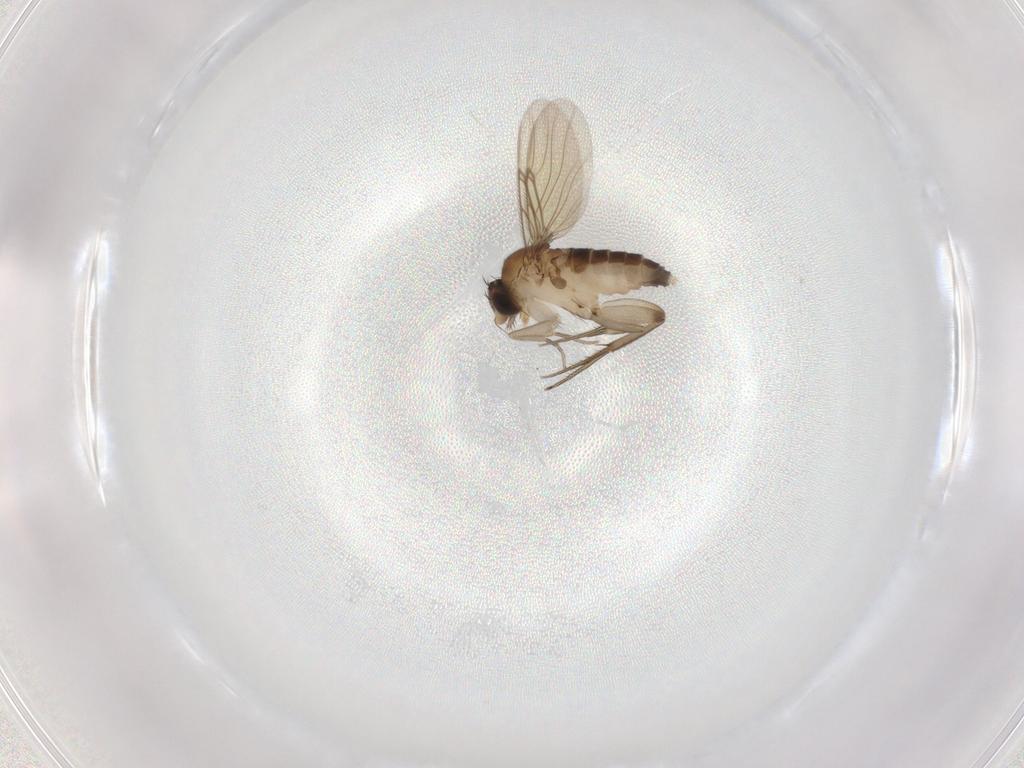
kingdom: Animalia
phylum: Arthropoda
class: Insecta
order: Diptera
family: Phoridae
